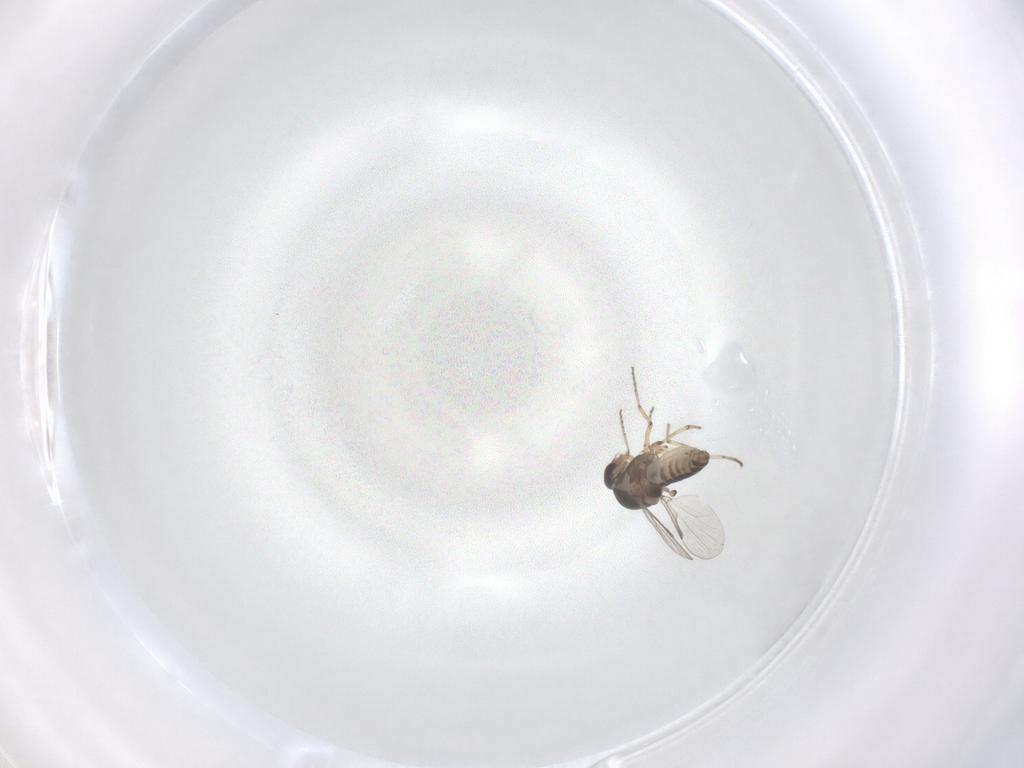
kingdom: Animalia
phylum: Arthropoda
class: Insecta
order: Diptera
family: Ceratopogonidae
